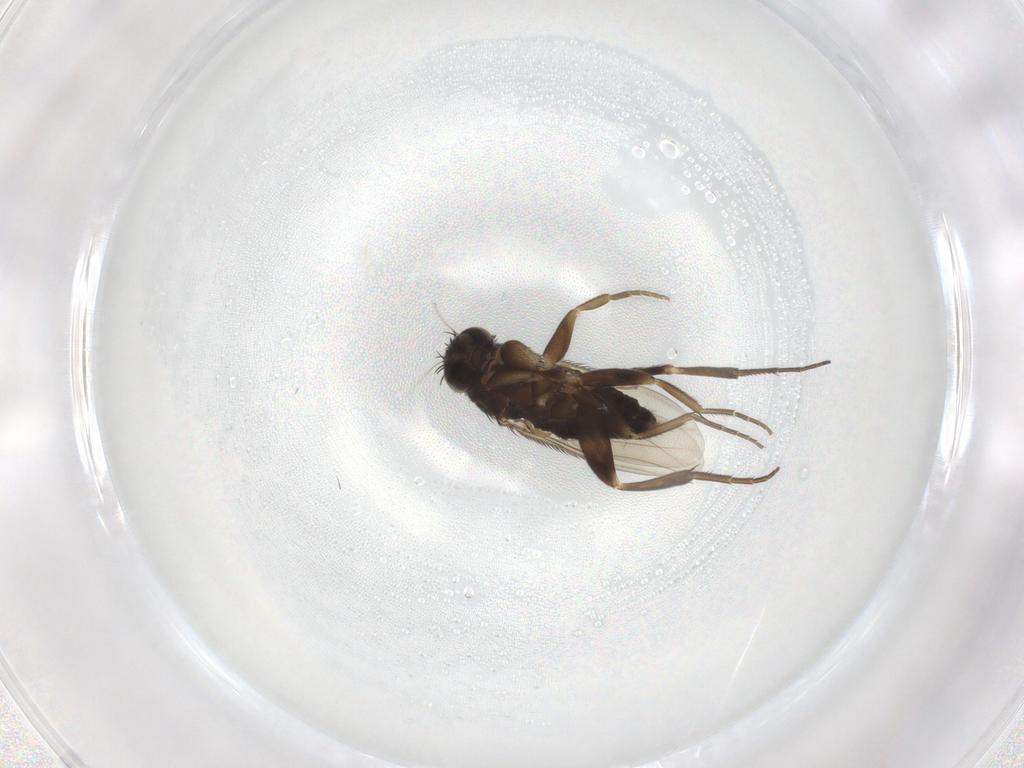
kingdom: Animalia
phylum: Arthropoda
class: Insecta
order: Diptera
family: Phoridae
